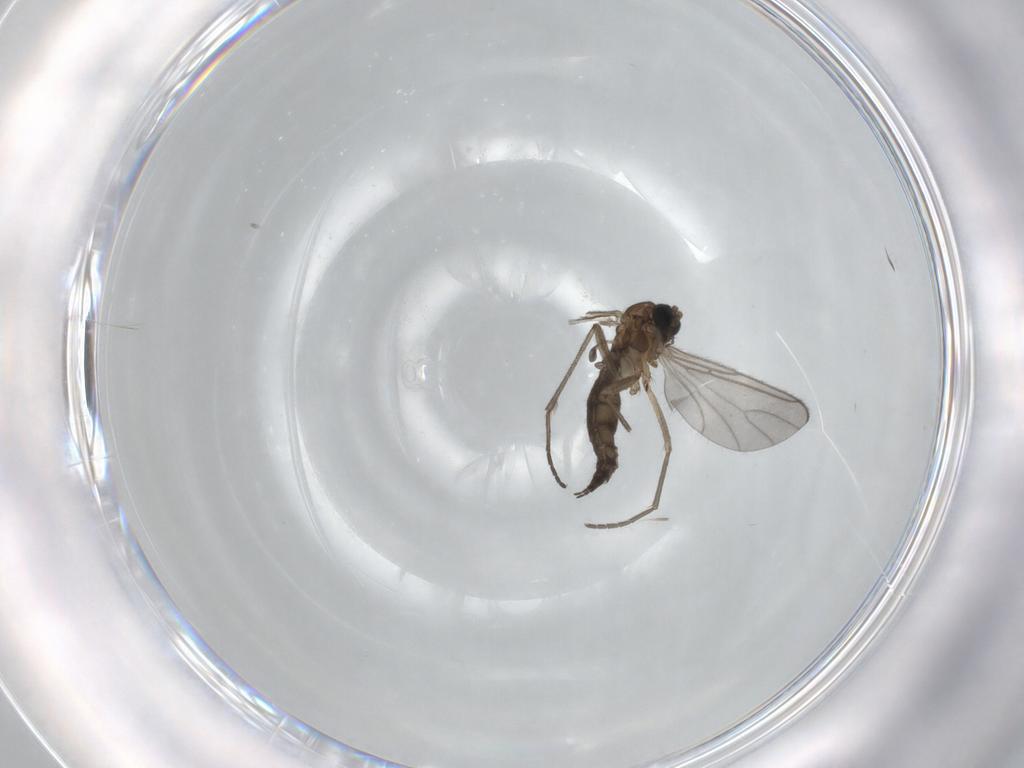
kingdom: Animalia
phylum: Arthropoda
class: Insecta
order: Diptera
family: Sciaridae
